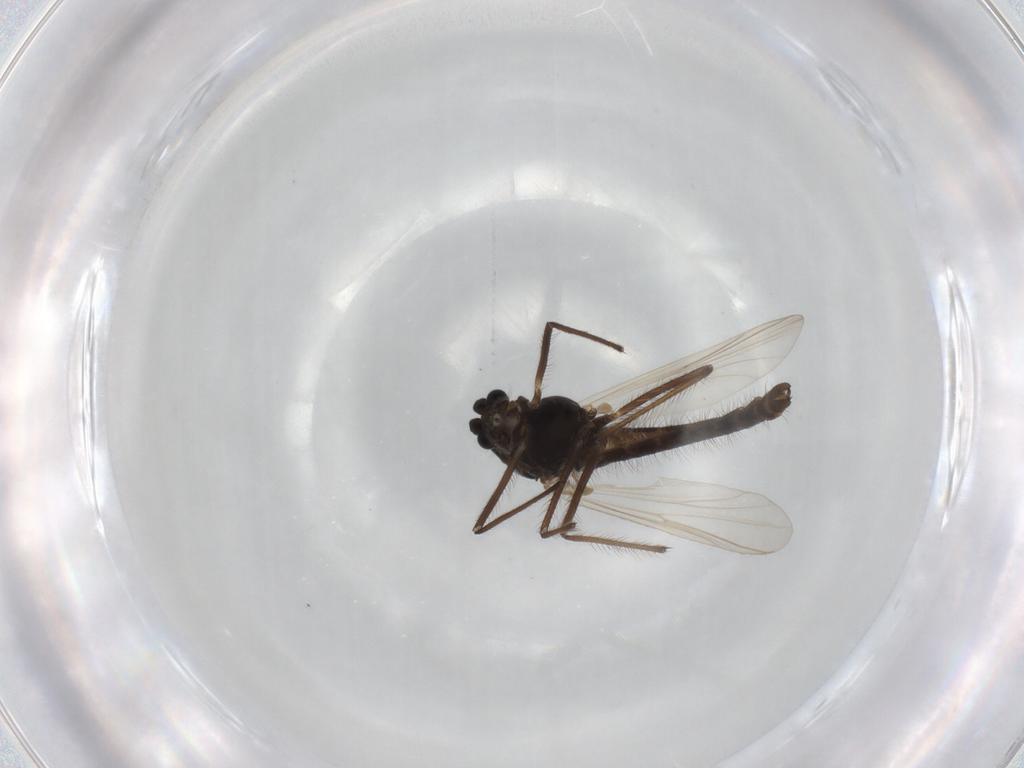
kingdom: Animalia
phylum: Arthropoda
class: Insecta
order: Diptera
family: Chironomidae
